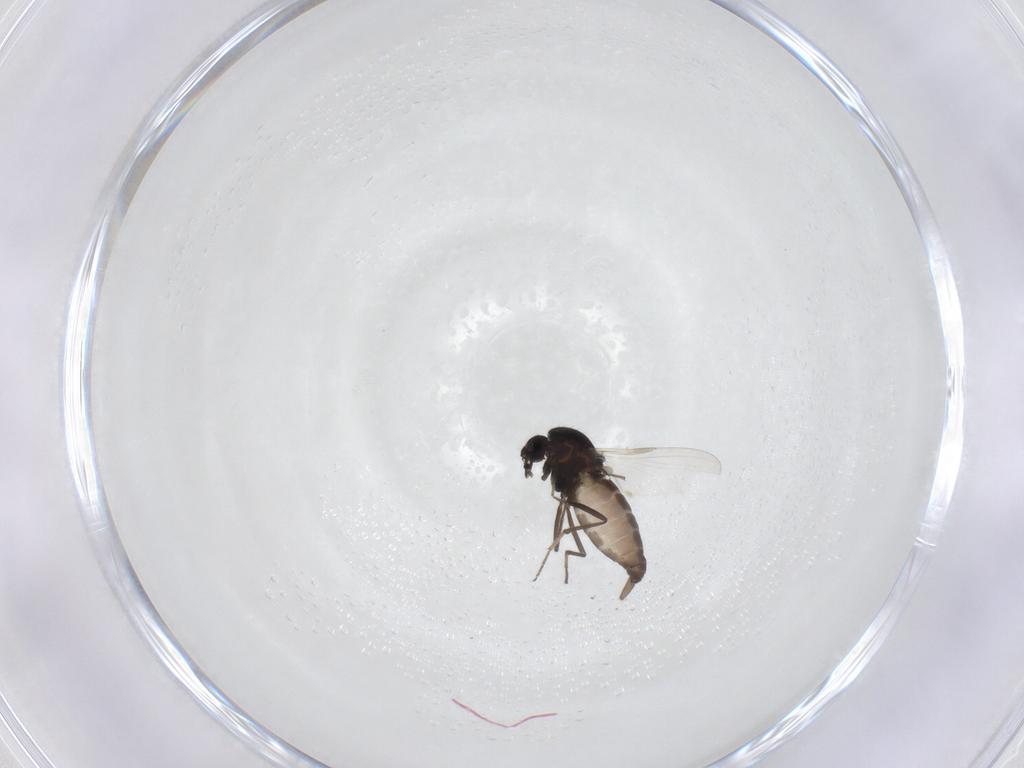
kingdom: Animalia
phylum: Arthropoda
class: Insecta
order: Diptera
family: Ceratopogonidae
